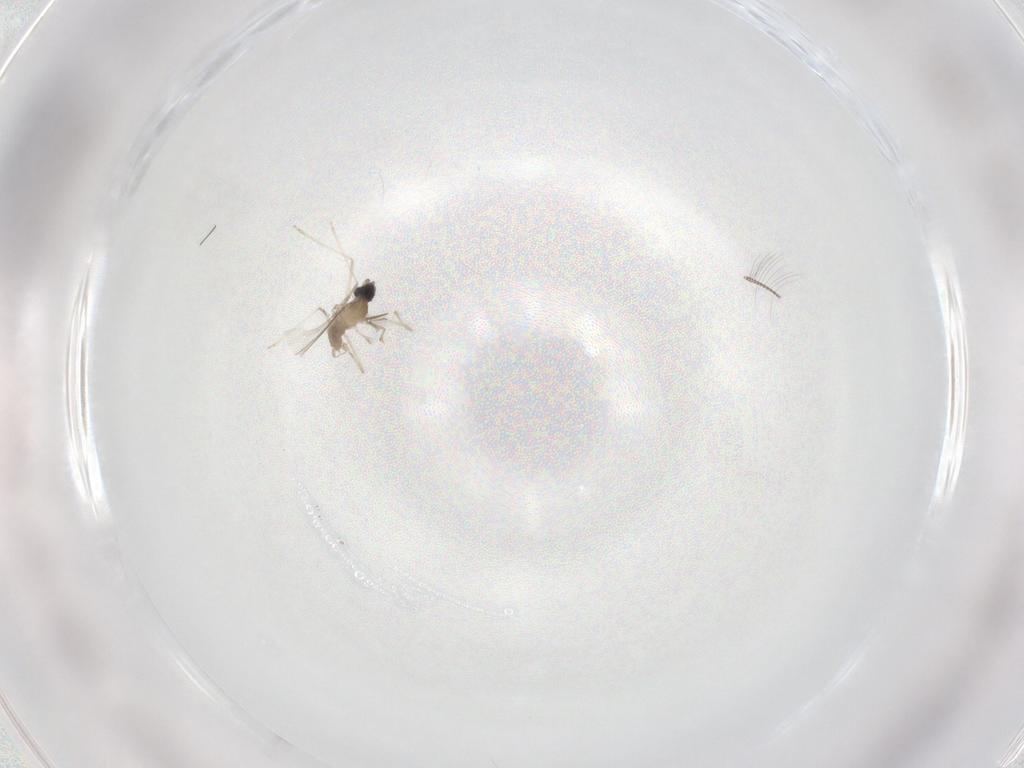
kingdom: Animalia
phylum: Arthropoda
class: Insecta
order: Diptera
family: Cecidomyiidae
